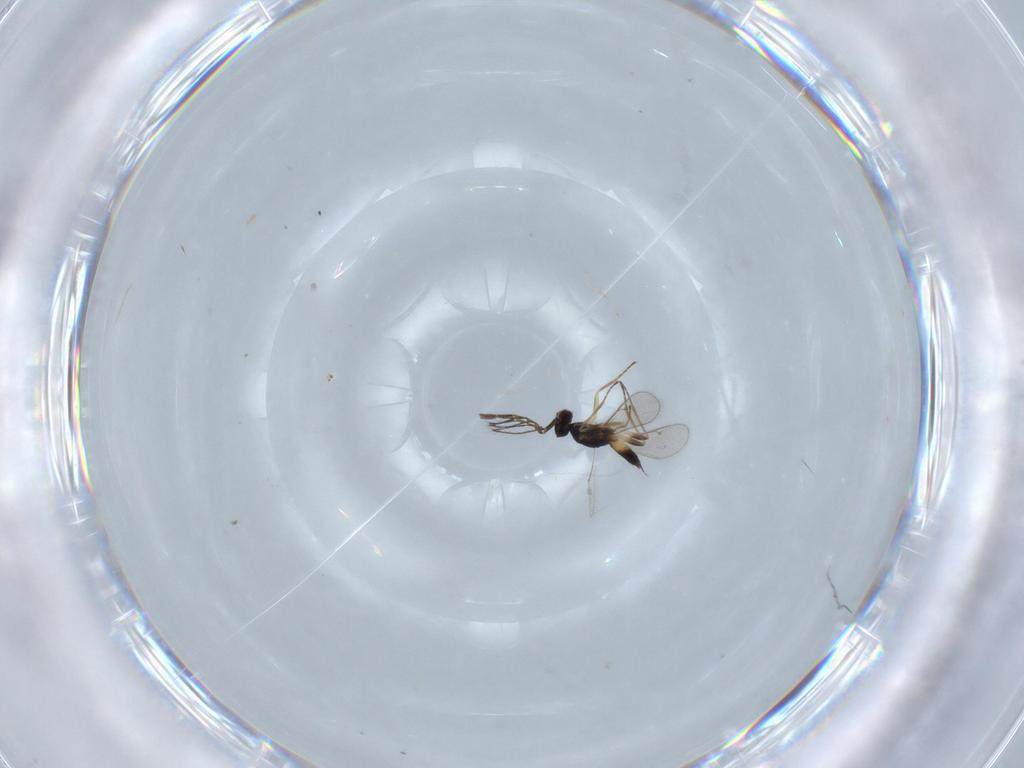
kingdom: Animalia
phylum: Arthropoda
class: Insecta
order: Hymenoptera
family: Eulophidae
